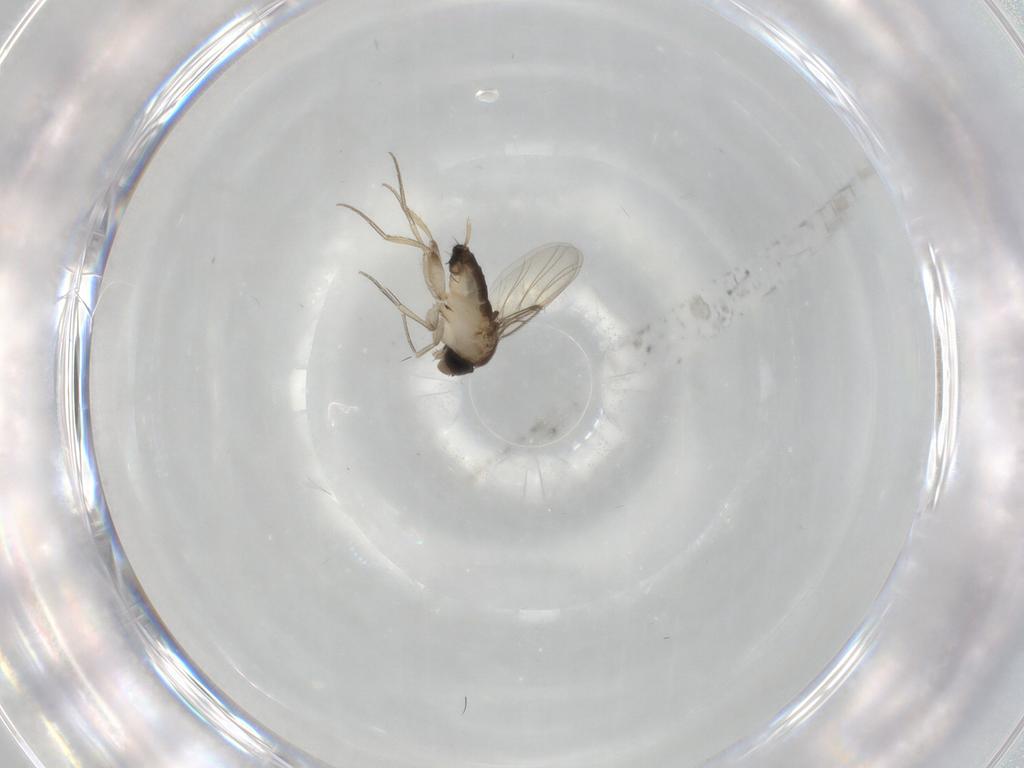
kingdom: Animalia
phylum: Arthropoda
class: Insecta
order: Diptera
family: Phoridae
